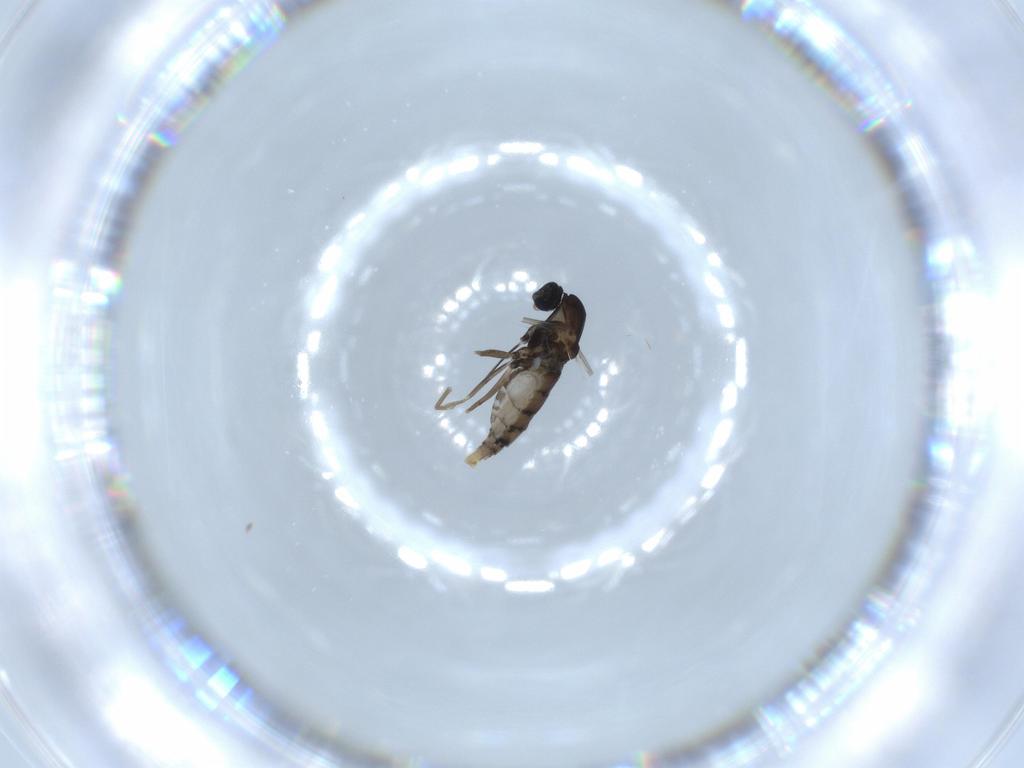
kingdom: Animalia
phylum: Arthropoda
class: Insecta
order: Diptera
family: Cecidomyiidae
